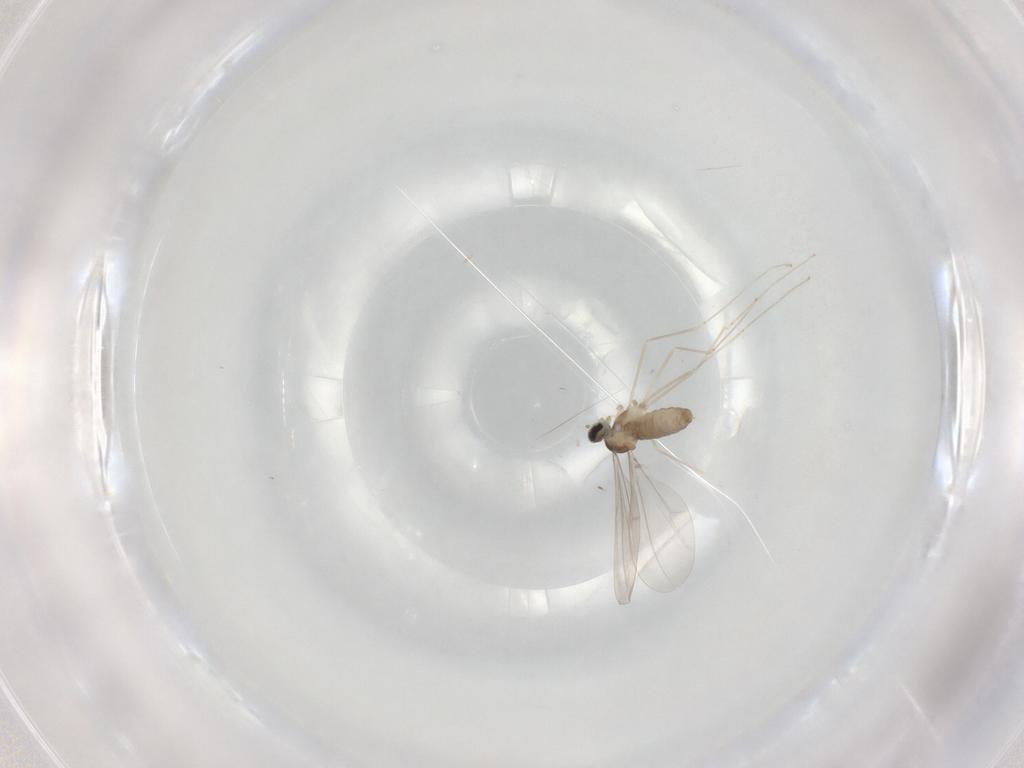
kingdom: Animalia
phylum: Arthropoda
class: Insecta
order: Diptera
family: Cecidomyiidae
